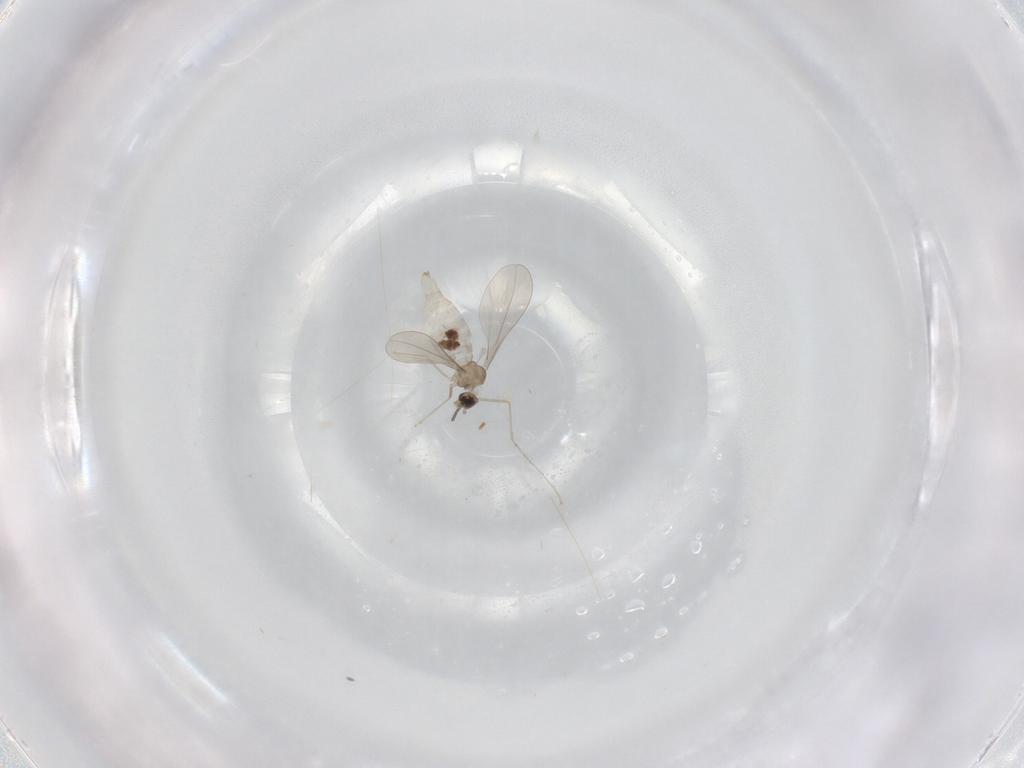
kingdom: Animalia
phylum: Arthropoda
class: Insecta
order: Diptera
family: Cecidomyiidae
